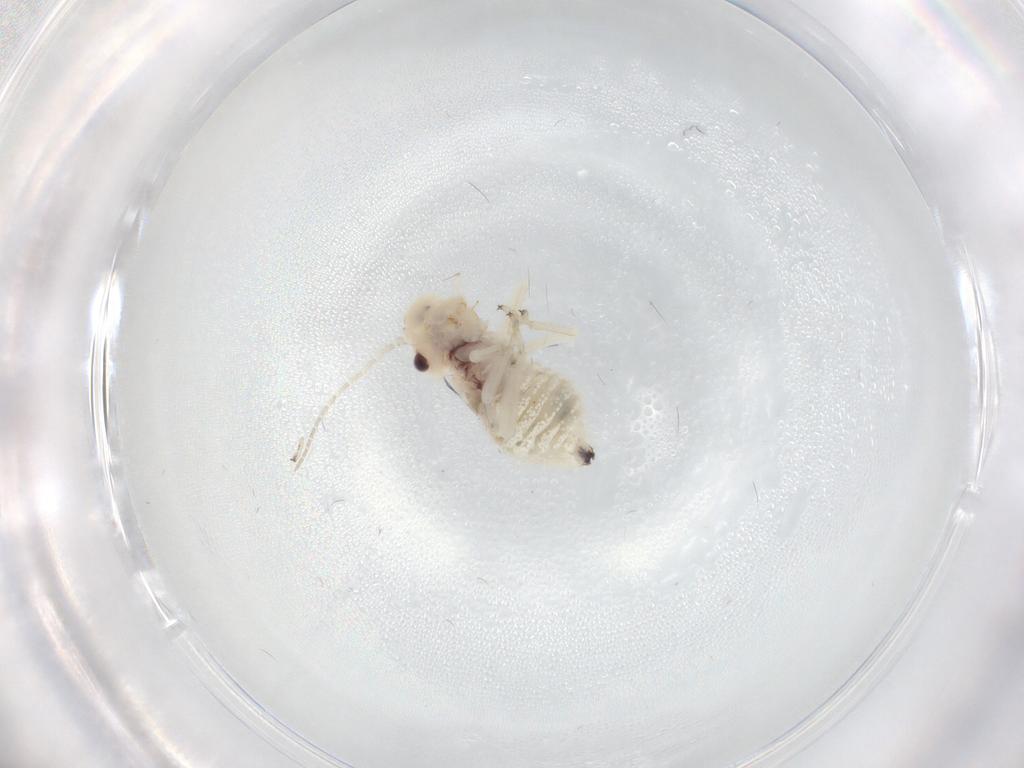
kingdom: Animalia
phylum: Arthropoda
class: Insecta
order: Psocodea
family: Amphipsocidae
